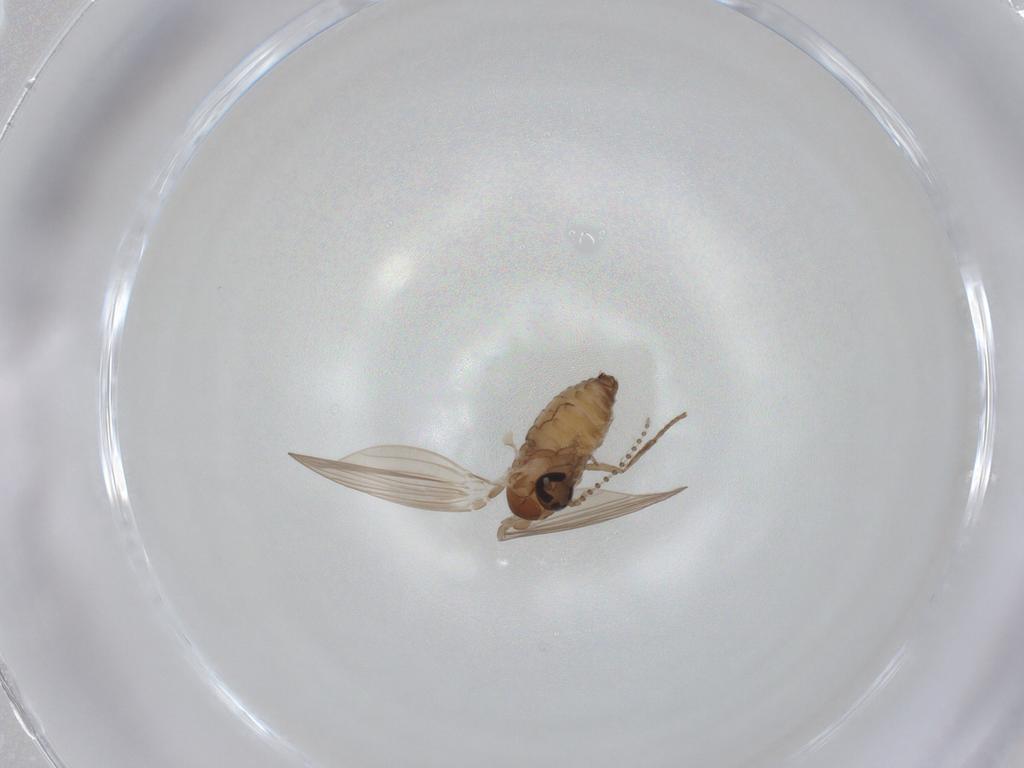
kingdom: Animalia
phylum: Arthropoda
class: Insecta
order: Diptera
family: Psychodidae
